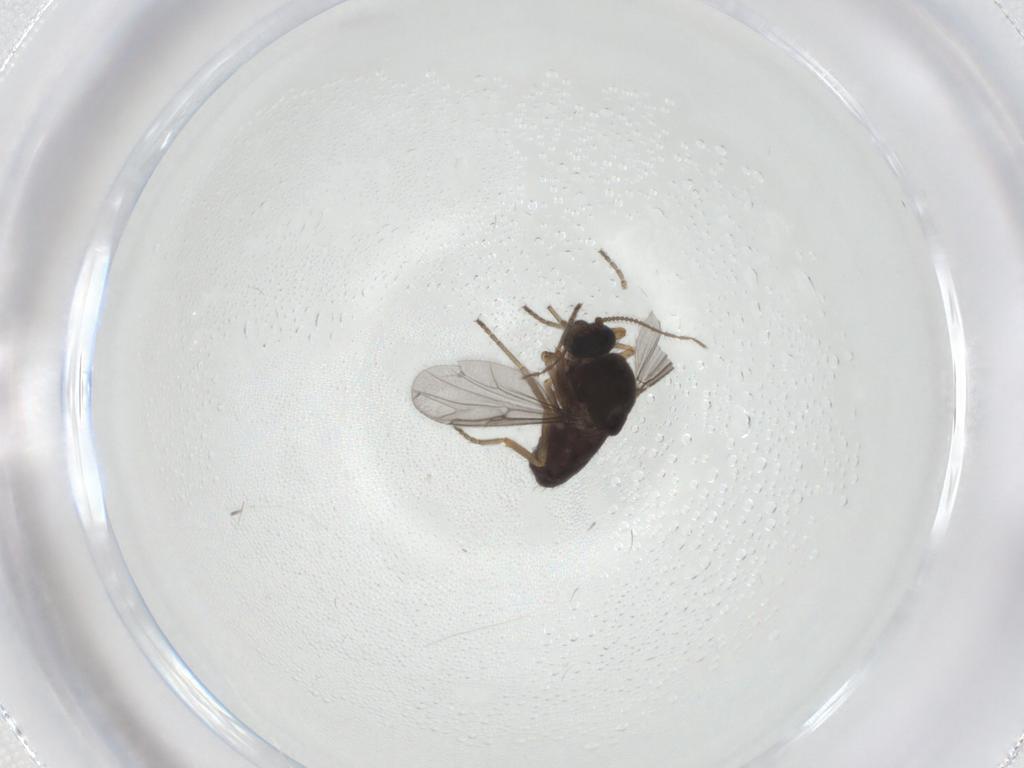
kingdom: Animalia
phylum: Arthropoda
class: Insecta
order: Diptera
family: Ceratopogonidae
